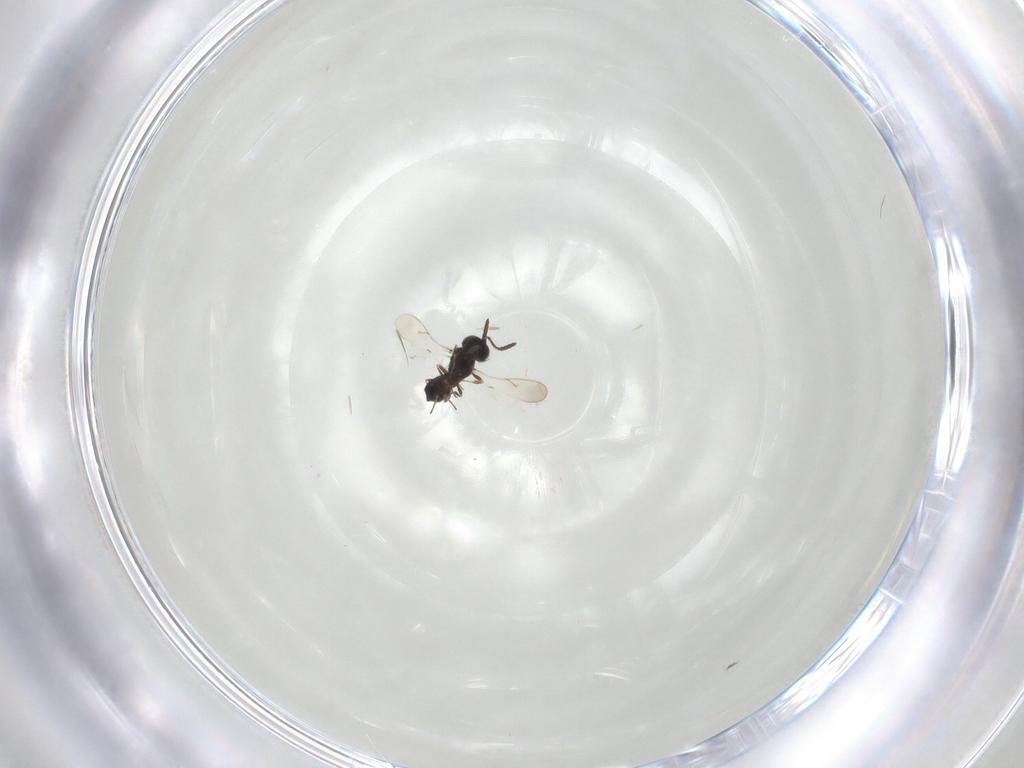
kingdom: Animalia
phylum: Arthropoda
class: Insecta
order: Hymenoptera
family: Scelionidae
